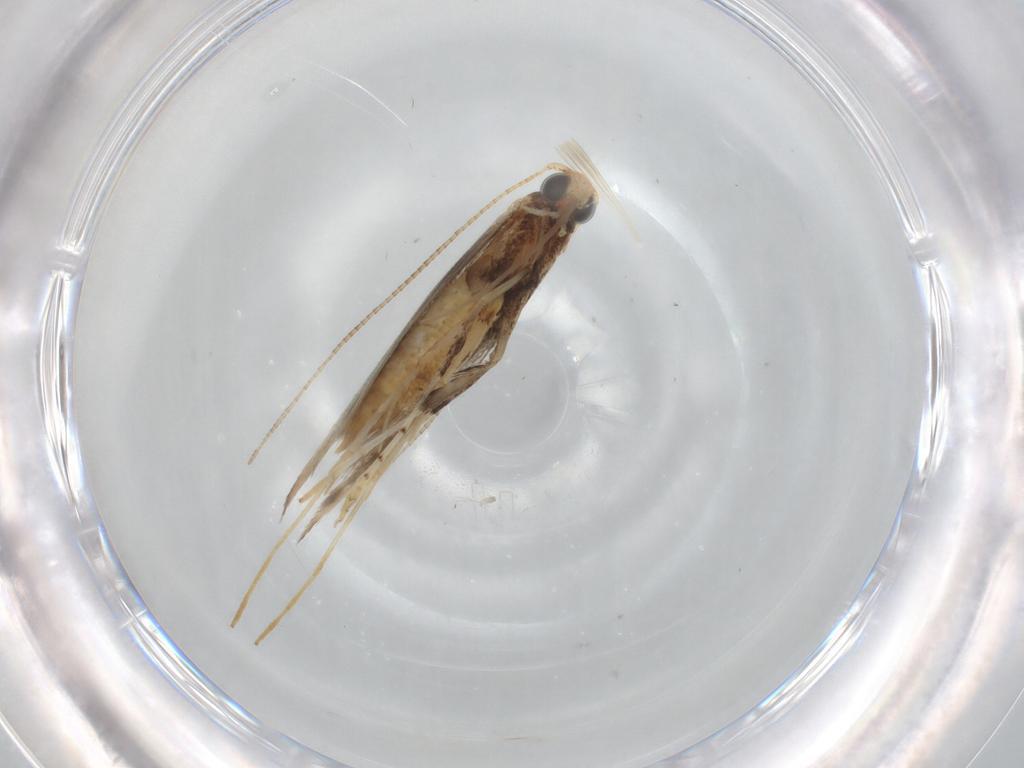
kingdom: Animalia
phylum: Arthropoda
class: Insecta
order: Lepidoptera
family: Gracillariidae
